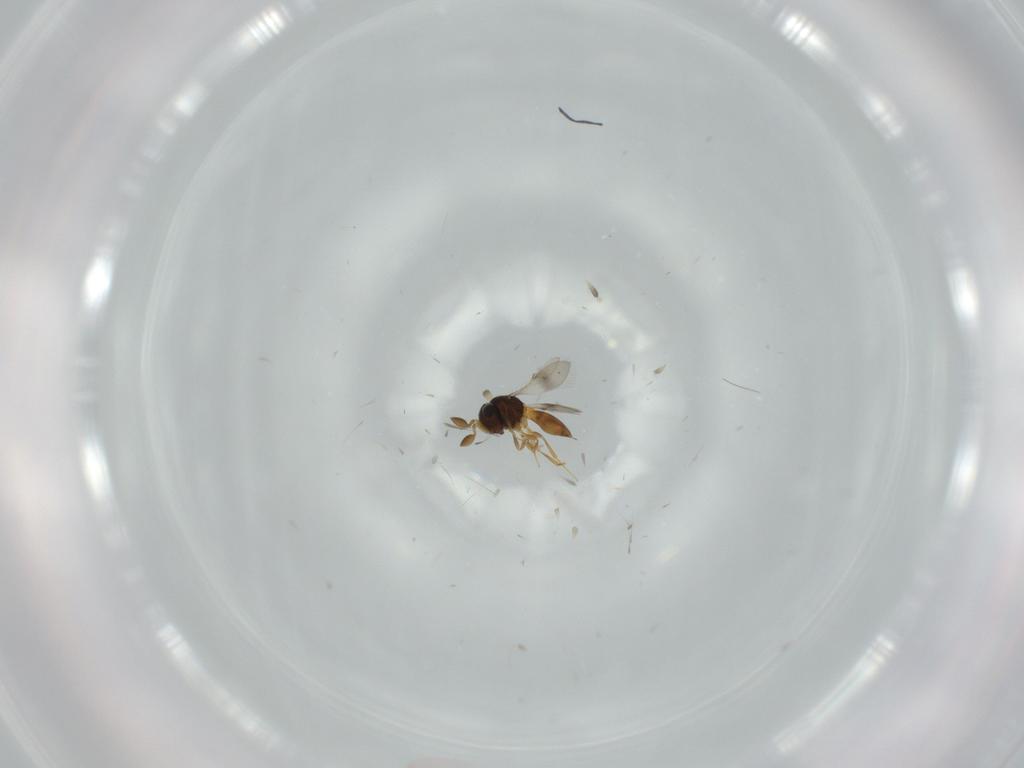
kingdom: Animalia
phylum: Arthropoda
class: Insecta
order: Hymenoptera
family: Scelionidae
